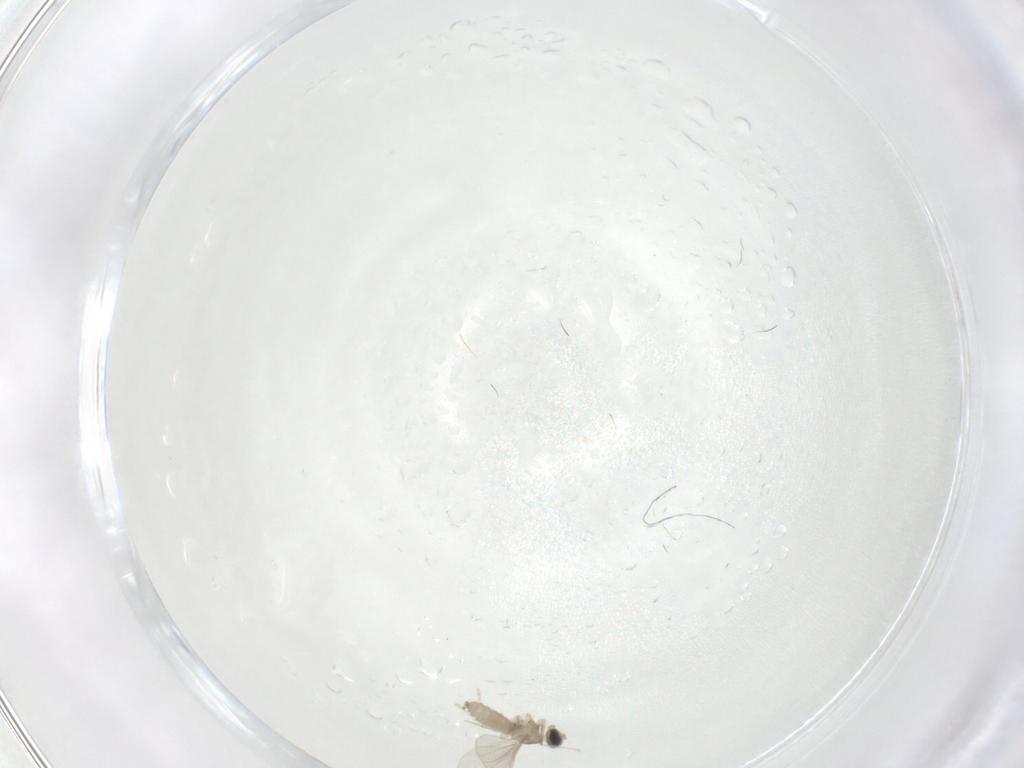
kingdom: Animalia
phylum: Arthropoda
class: Insecta
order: Diptera
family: Cecidomyiidae
